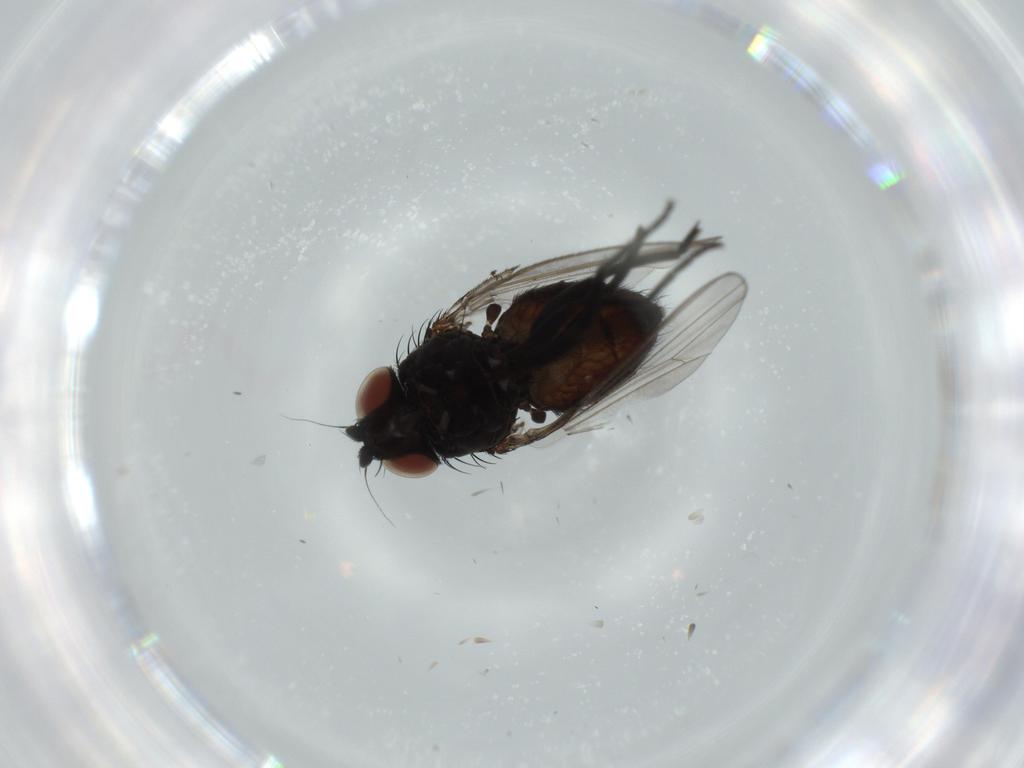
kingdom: Animalia
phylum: Arthropoda
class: Insecta
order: Diptera
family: Milichiidae
